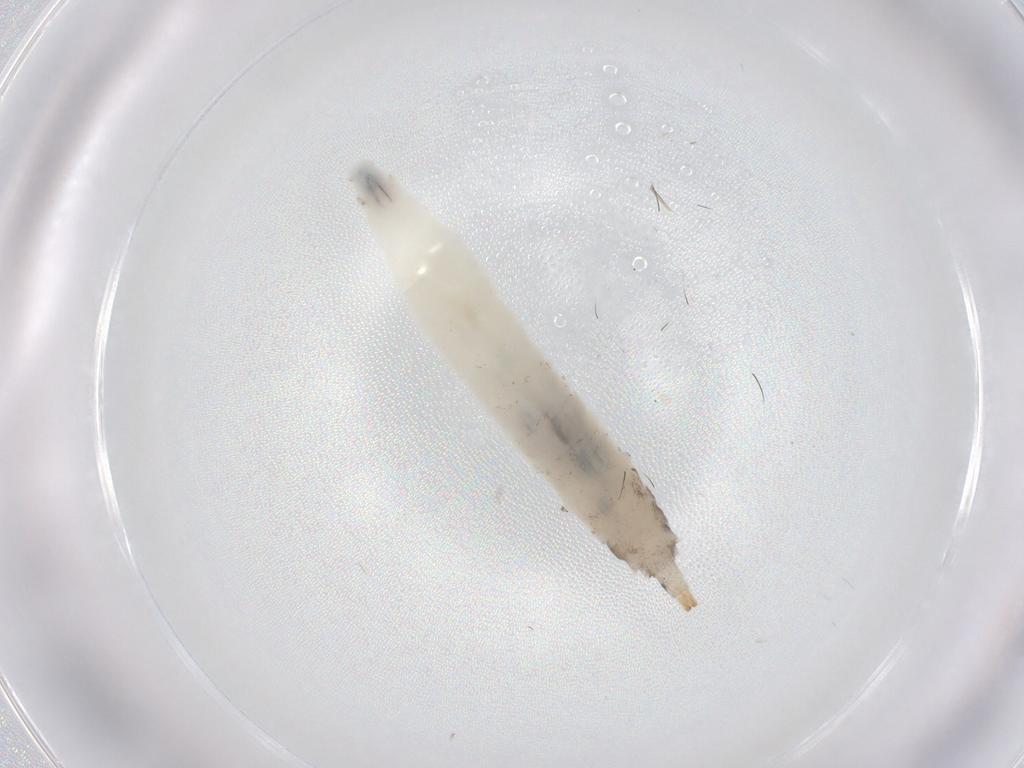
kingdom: Animalia
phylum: Arthropoda
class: Insecta
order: Diptera
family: Drosophilidae
